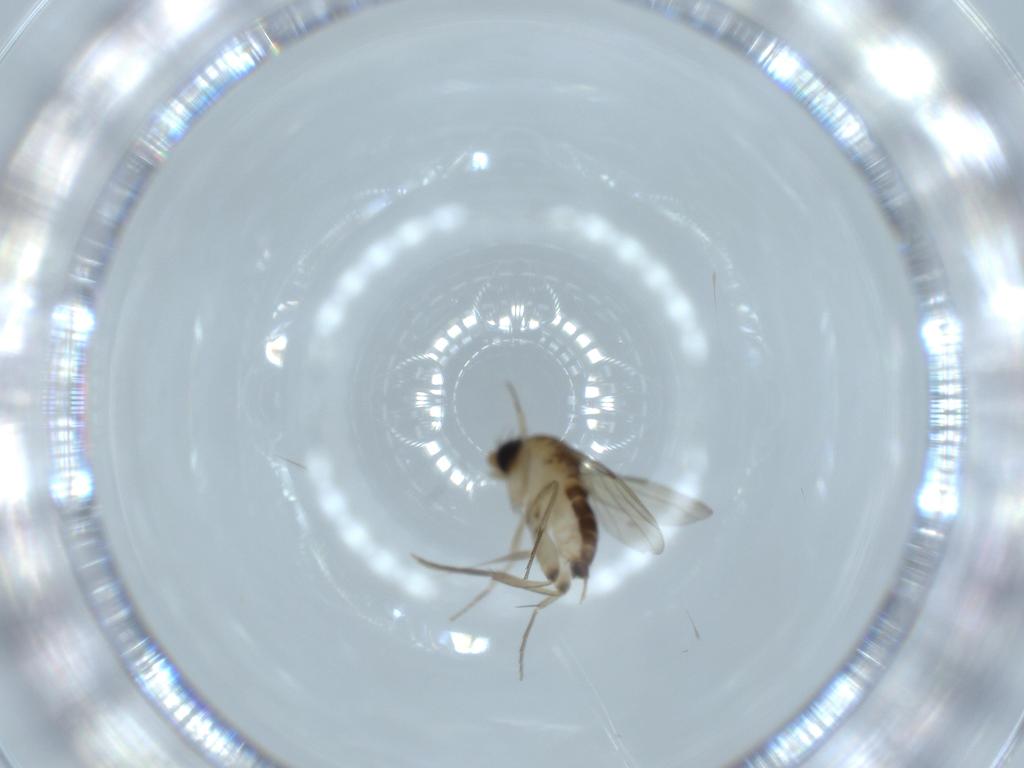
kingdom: Animalia
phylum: Arthropoda
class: Insecta
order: Diptera
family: Phoridae
